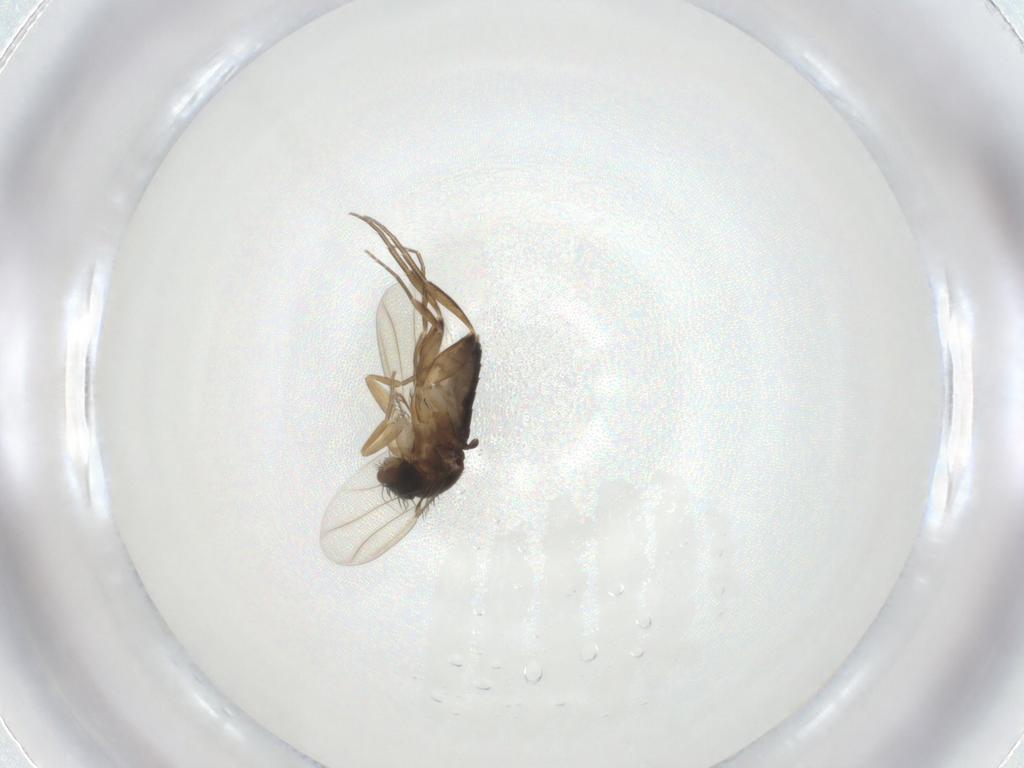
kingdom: Animalia
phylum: Arthropoda
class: Insecta
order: Diptera
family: Phoridae
